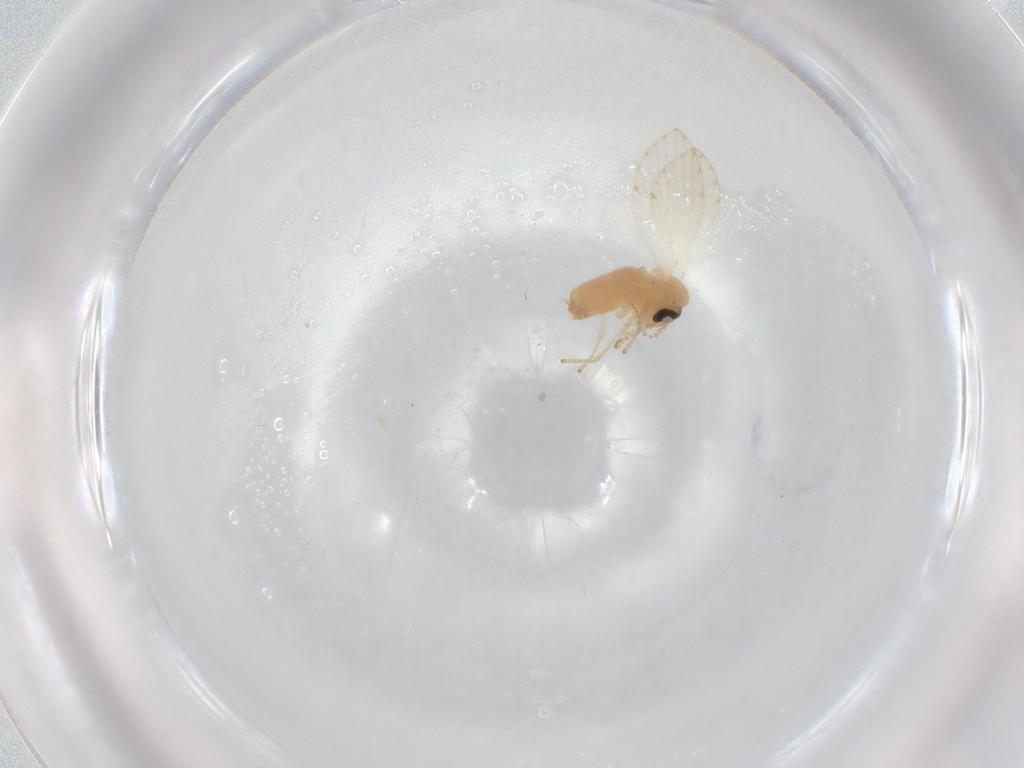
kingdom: Animalia
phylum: Arthropoda
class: Insecta
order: Diptera
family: Psychodidae
